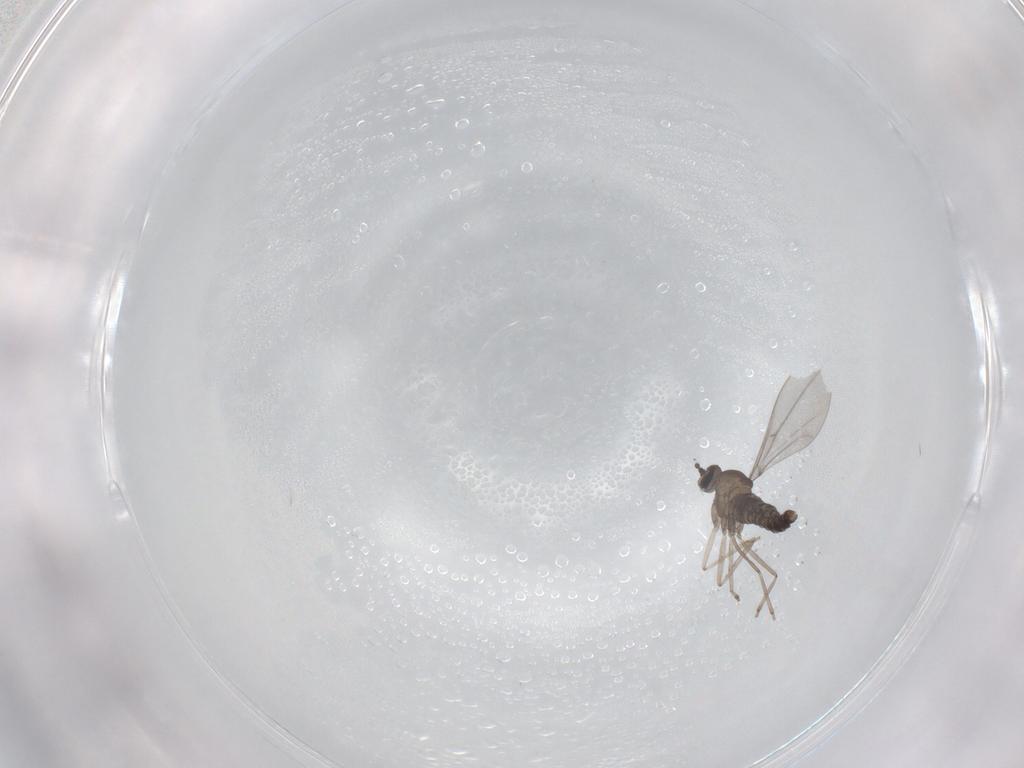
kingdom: Animalia
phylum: Arthropoda
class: Insecta
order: Diptera
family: Cecidomyiidae
